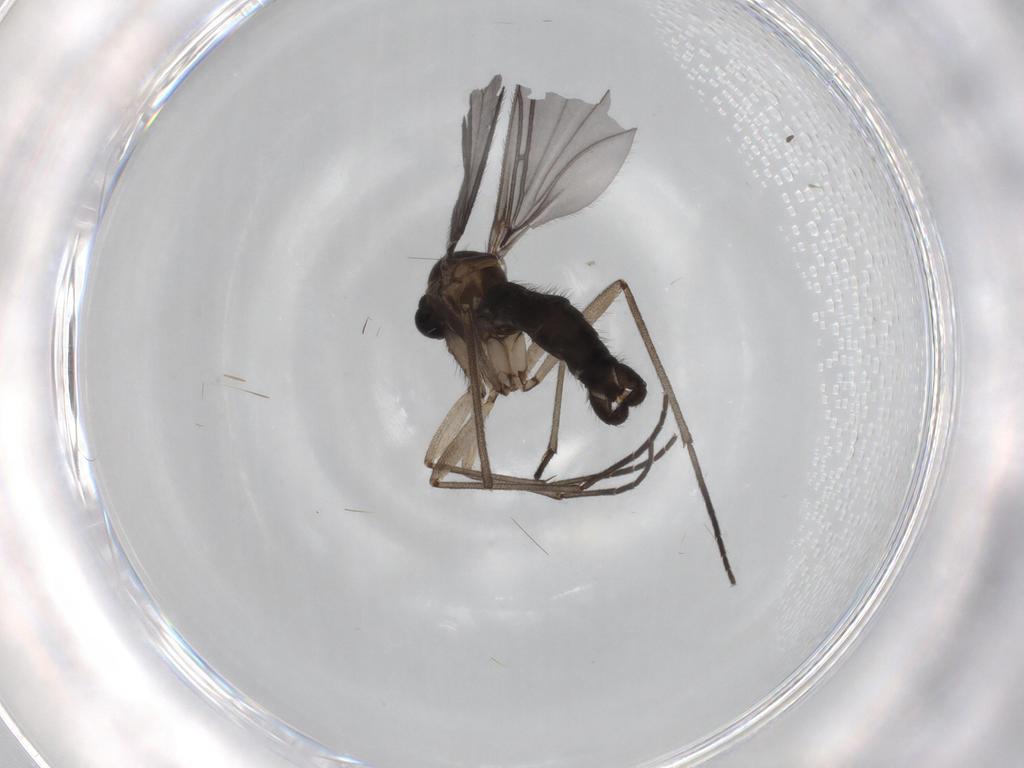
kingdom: Animalia
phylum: Arthropoda
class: Insecta
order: Diptera
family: Sciaridae
